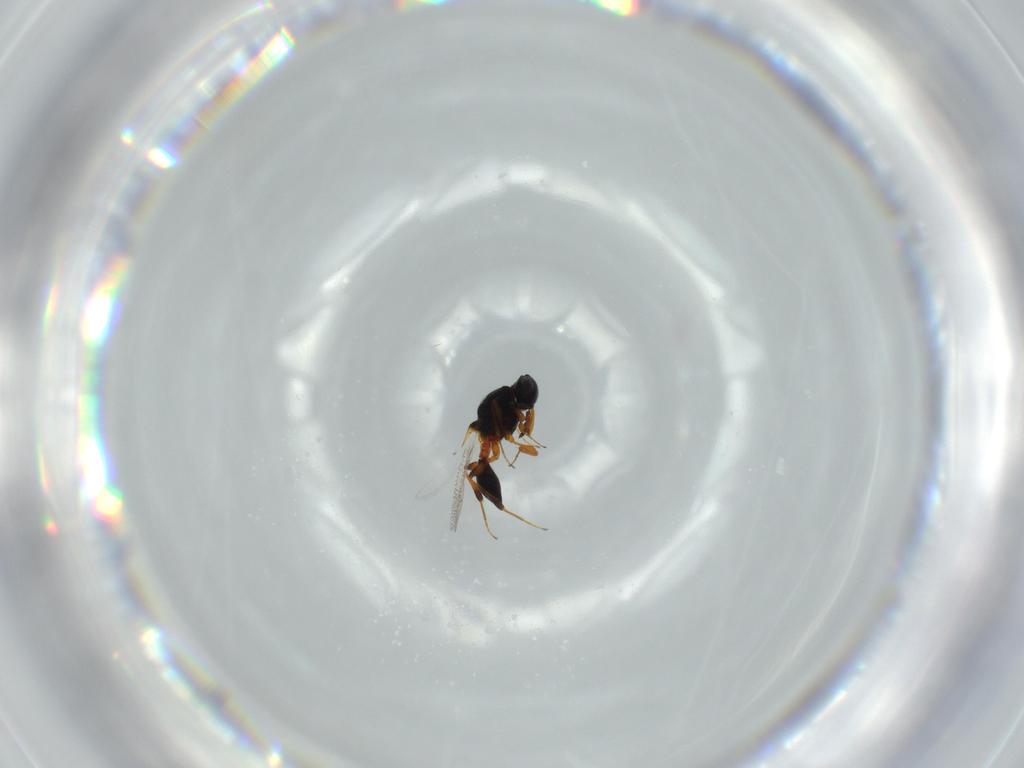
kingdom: Animalia
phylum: Arthropoda
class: Insecta
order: Hymenoptera
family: Platygastridae
